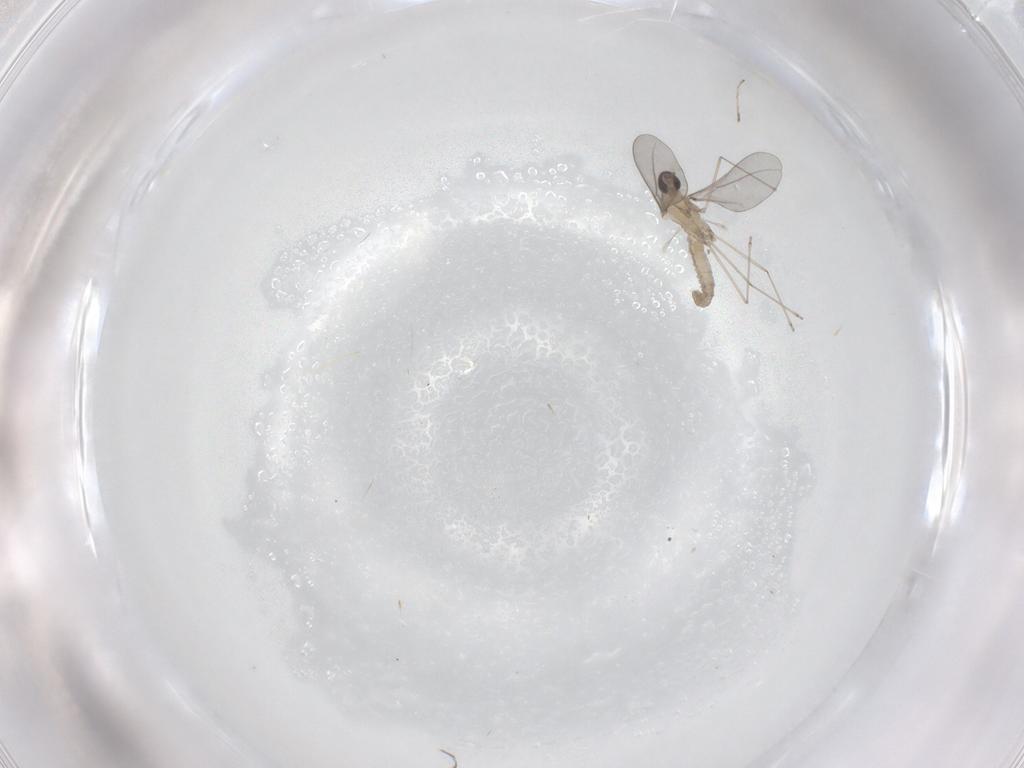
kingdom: Animalia
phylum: Arthropoda
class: Insecta
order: Diptera
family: Cecidomyiidae
